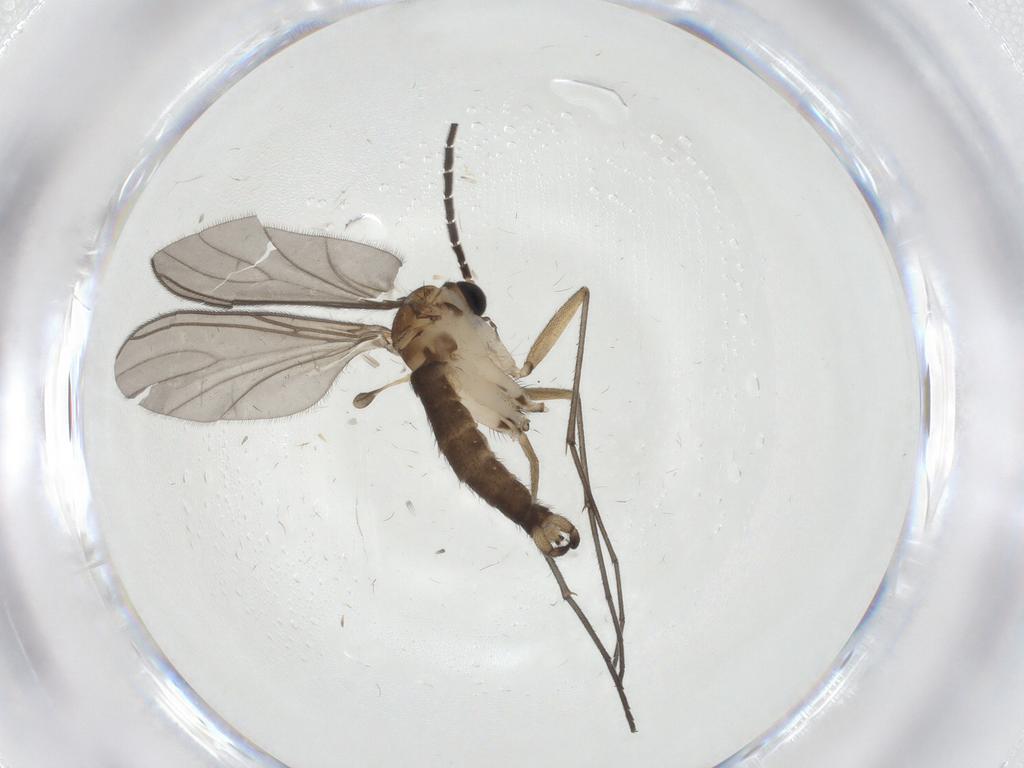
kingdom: Animalia
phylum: Arthropoda
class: Insecta
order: Diptera
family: Sciaridae
